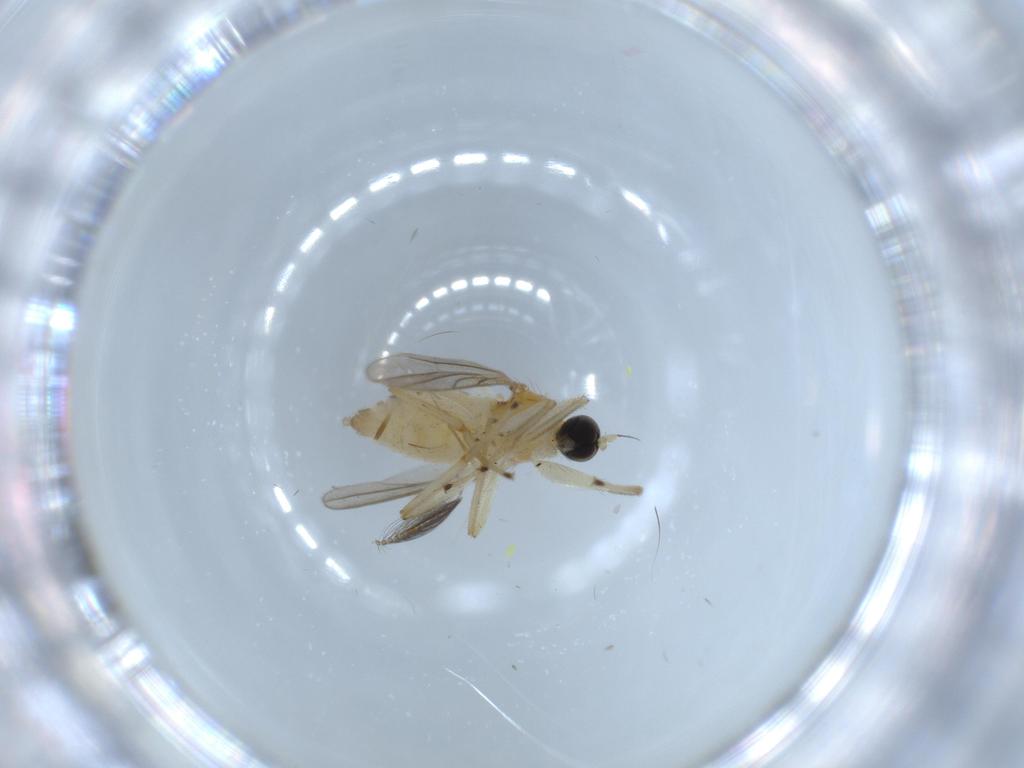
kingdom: Animalia
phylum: Arthropoda
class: Insecta
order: Diptera
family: Hybotidae
